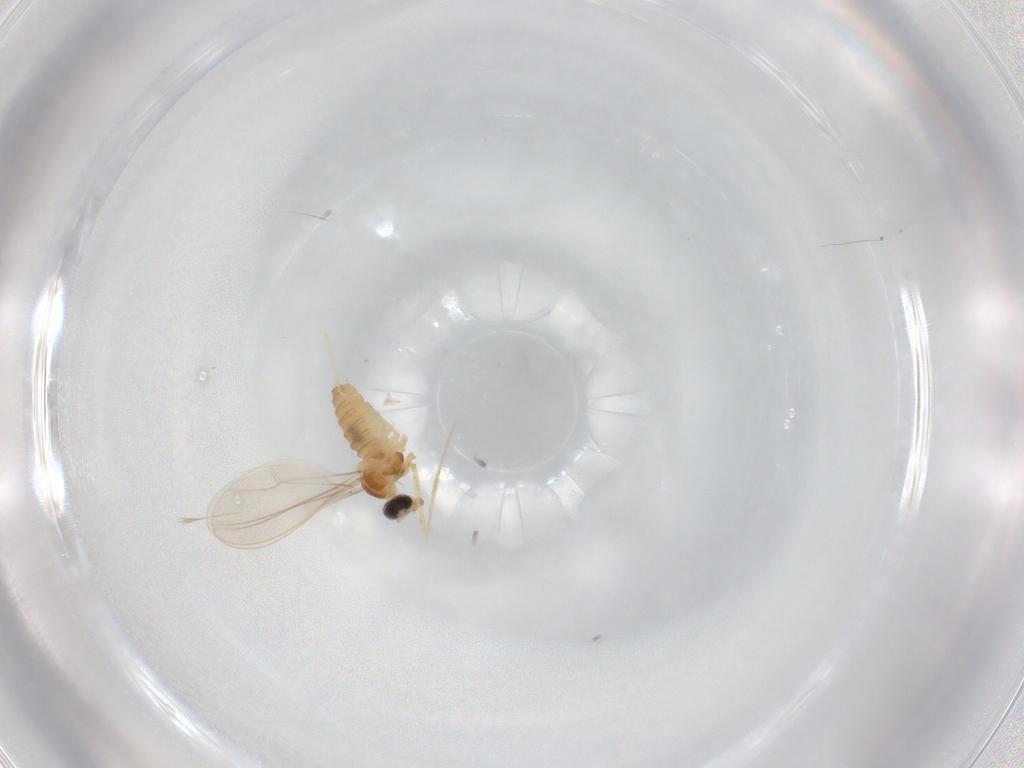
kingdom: Animalia
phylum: Arthropoda
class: Insecta
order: Diptera
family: Cecidomyiidae
